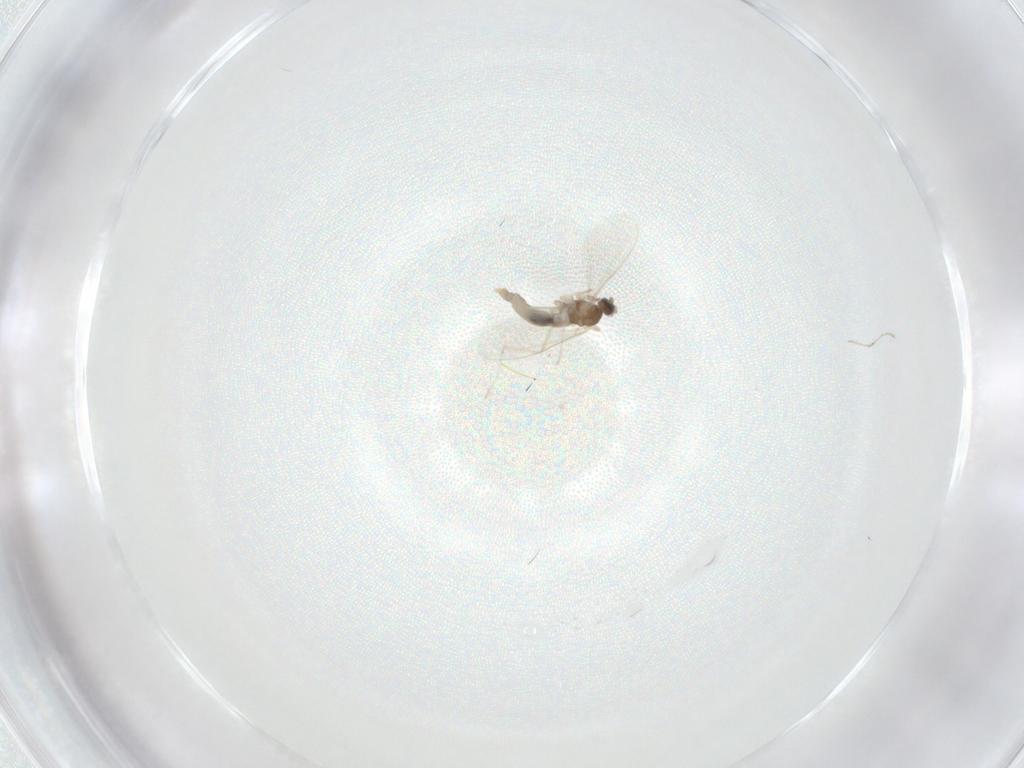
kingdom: Animalia
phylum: Arthropoda
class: Insecta
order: Diptera
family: Cecidomyiidae
